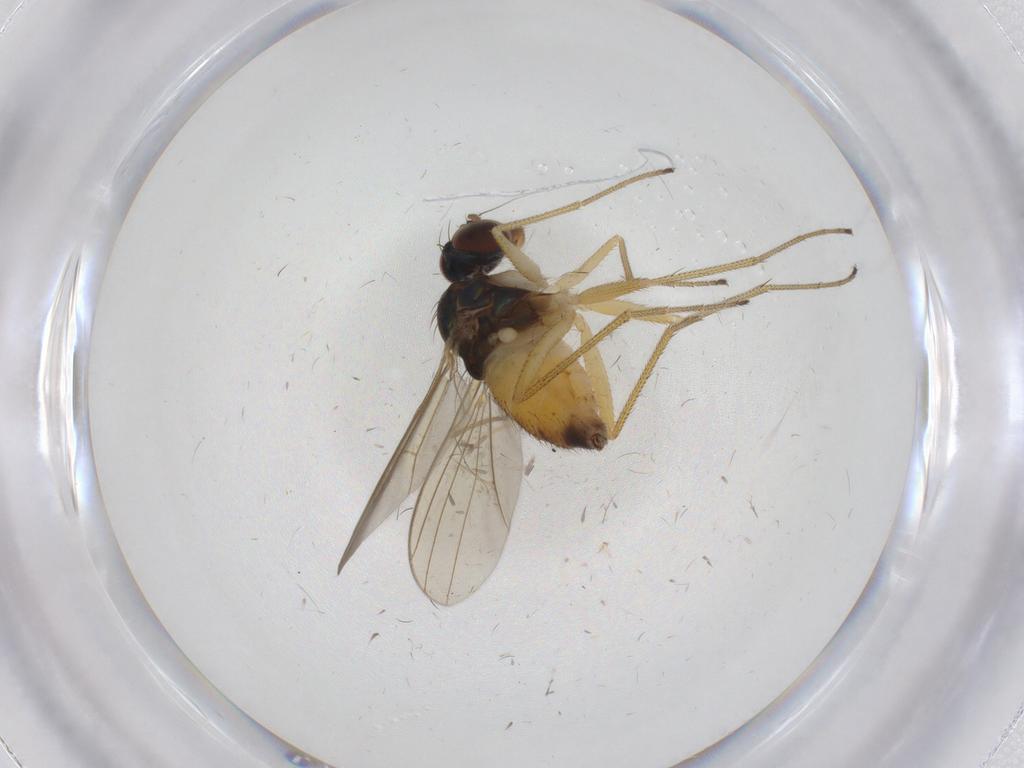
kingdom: Animalia
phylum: Arthropoda
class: Insecta
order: Diptera
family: Dolichopodidae
